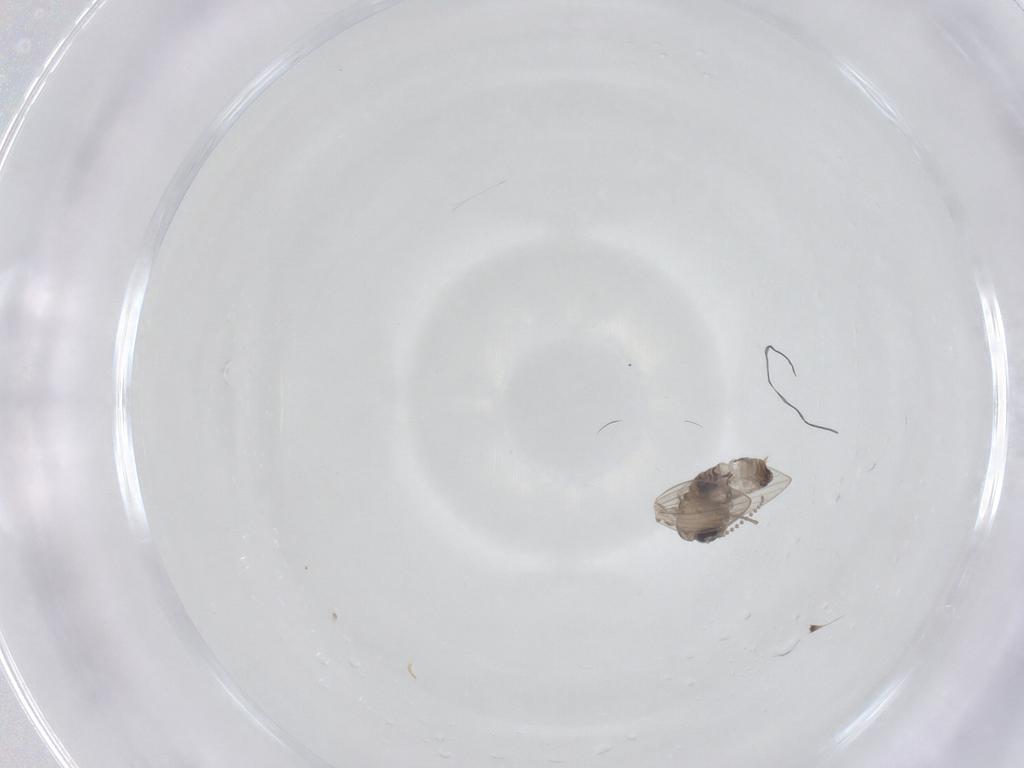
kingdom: Animalia
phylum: Arthropoda
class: Insecta
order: Diptera
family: Psychodidae
